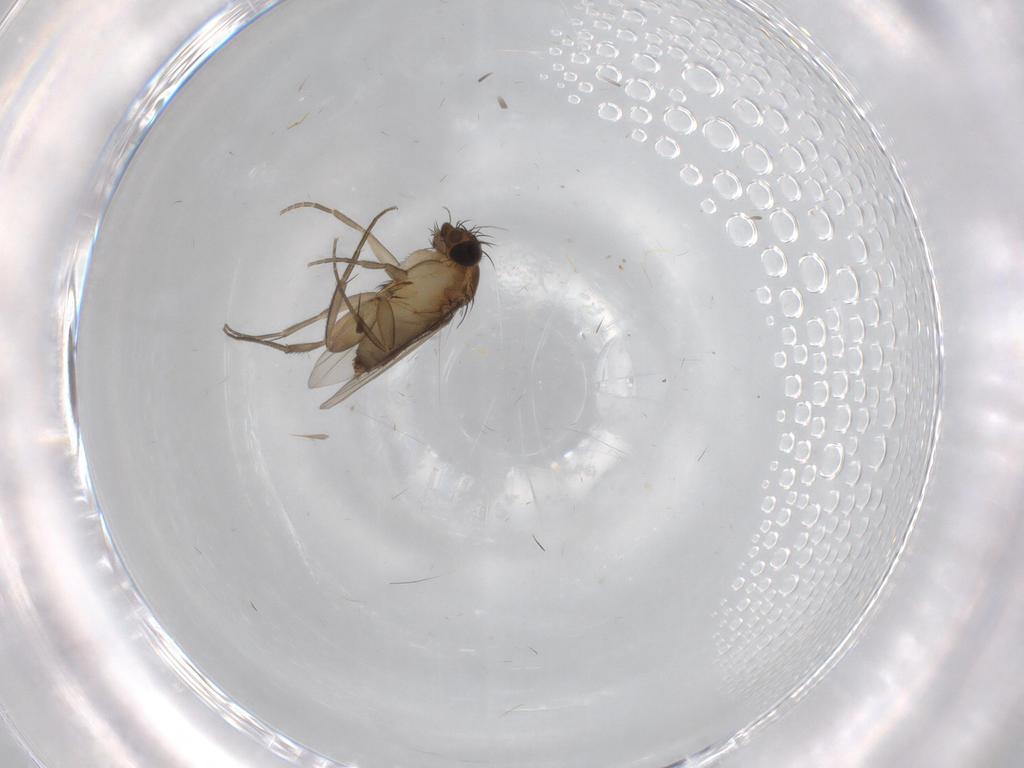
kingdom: Animalia
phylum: Arthropoda
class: Insecta
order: Diptera
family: Phoridae
